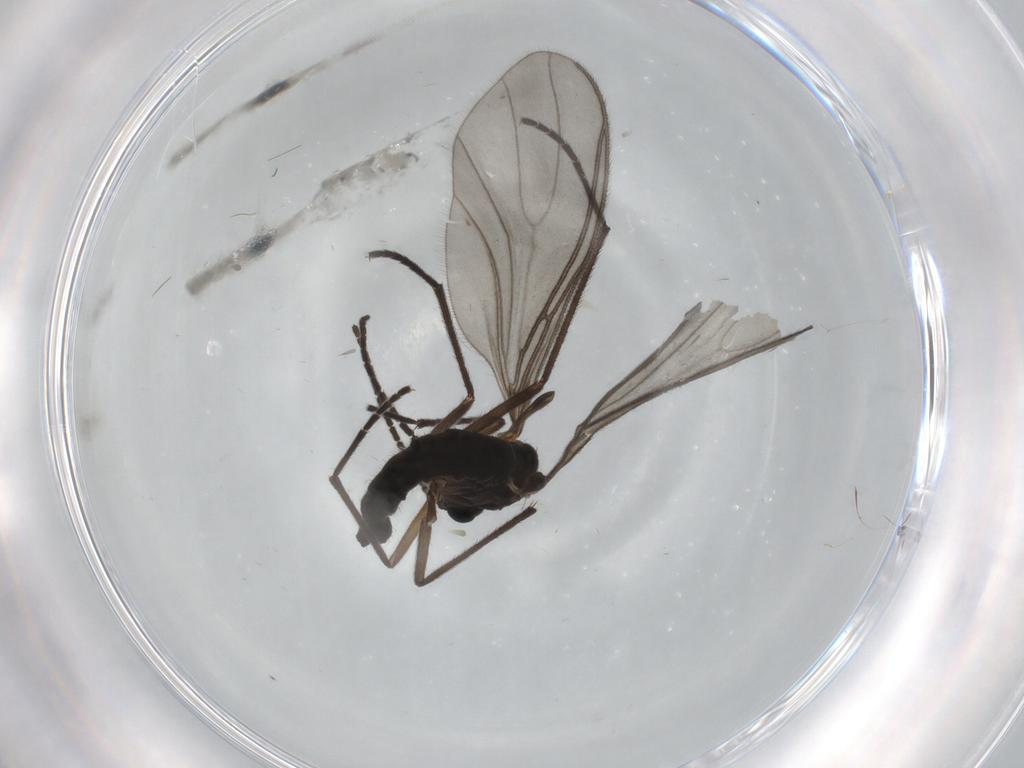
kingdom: Animalia
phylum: Arthropoda
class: Insecta
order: Diptera
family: Sciaridae
